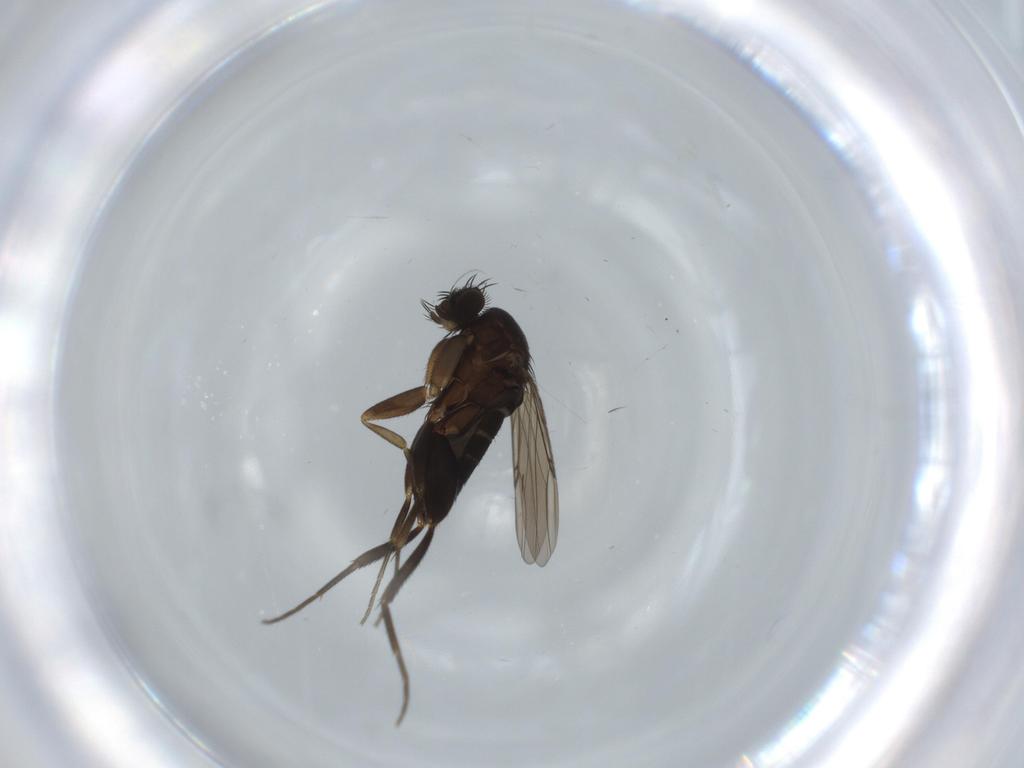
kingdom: Animalia
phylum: Arthropoda
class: Insecta
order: Diptera
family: Phoridae
